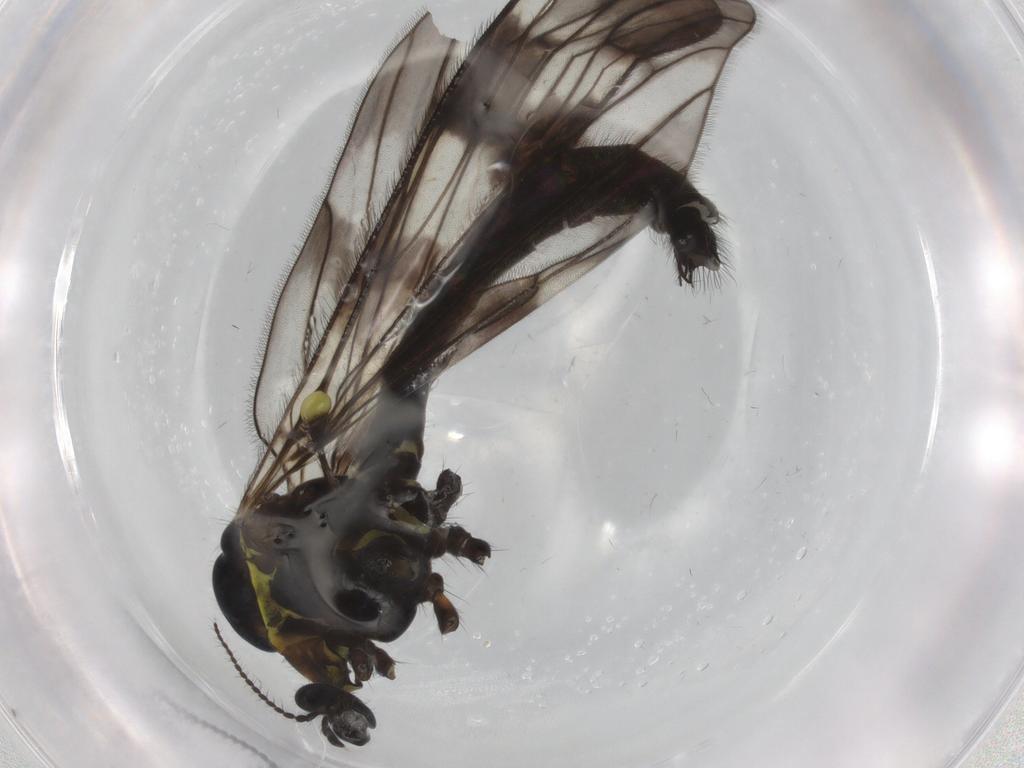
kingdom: Animalia
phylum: Arthropoda
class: Insecta
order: Diptera
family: Limoniidae
